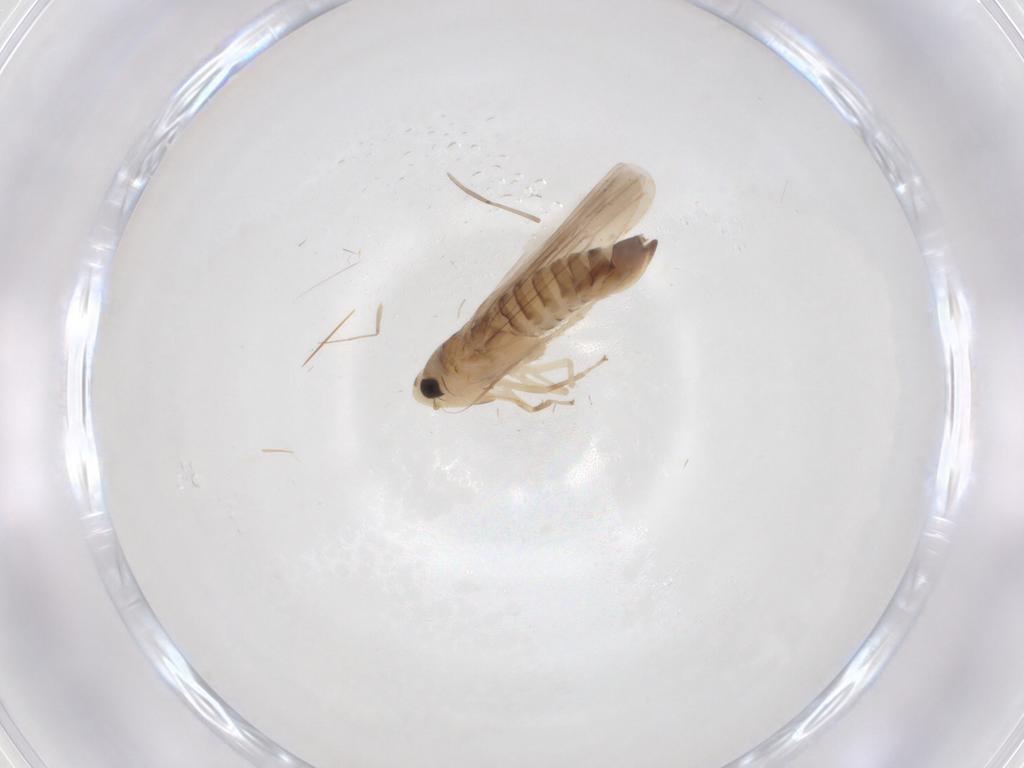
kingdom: Animalia
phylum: Arthropoda
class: Insecta
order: Hemiptera
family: Cicadellidae
